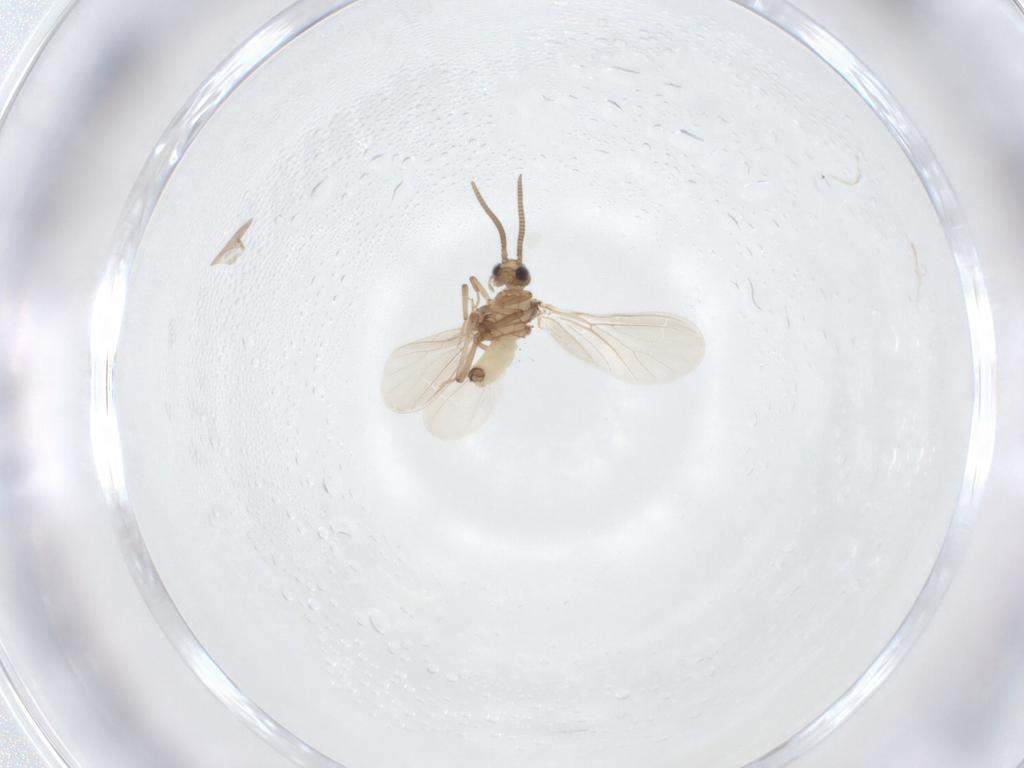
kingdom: Animalia
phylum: Arthropoda
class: Insecta
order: Neuroptera
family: Coniopterygidae
